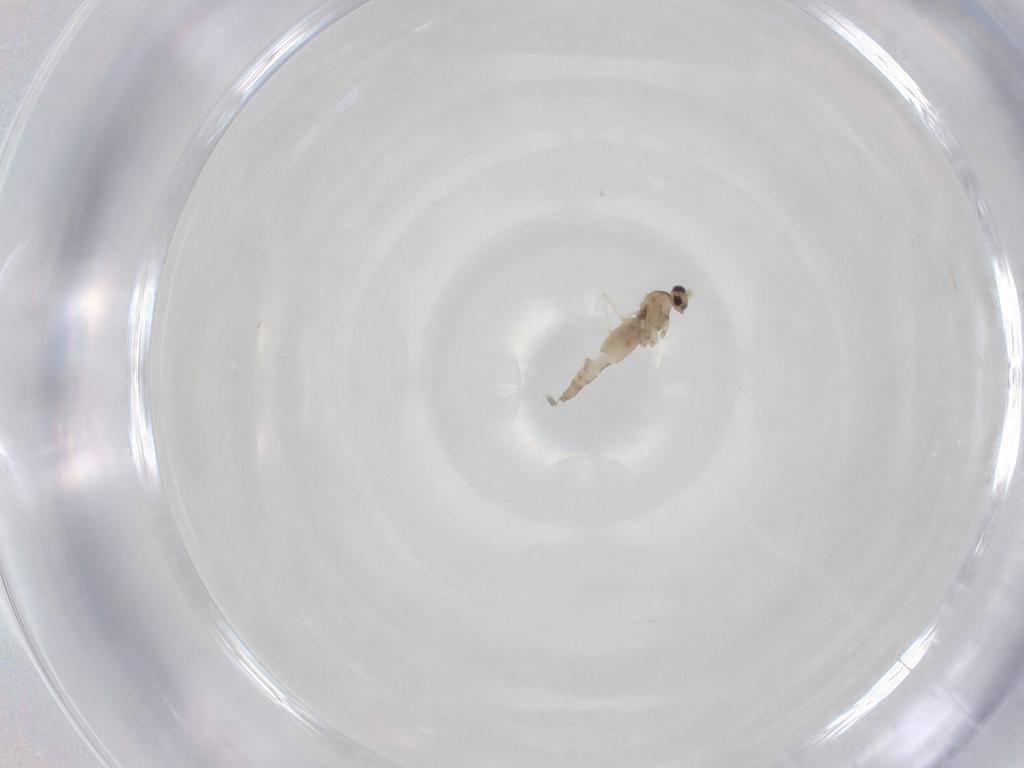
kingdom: Animalia
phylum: Arthropoda
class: Insecta
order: Diptera
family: Cecidomyiidae
